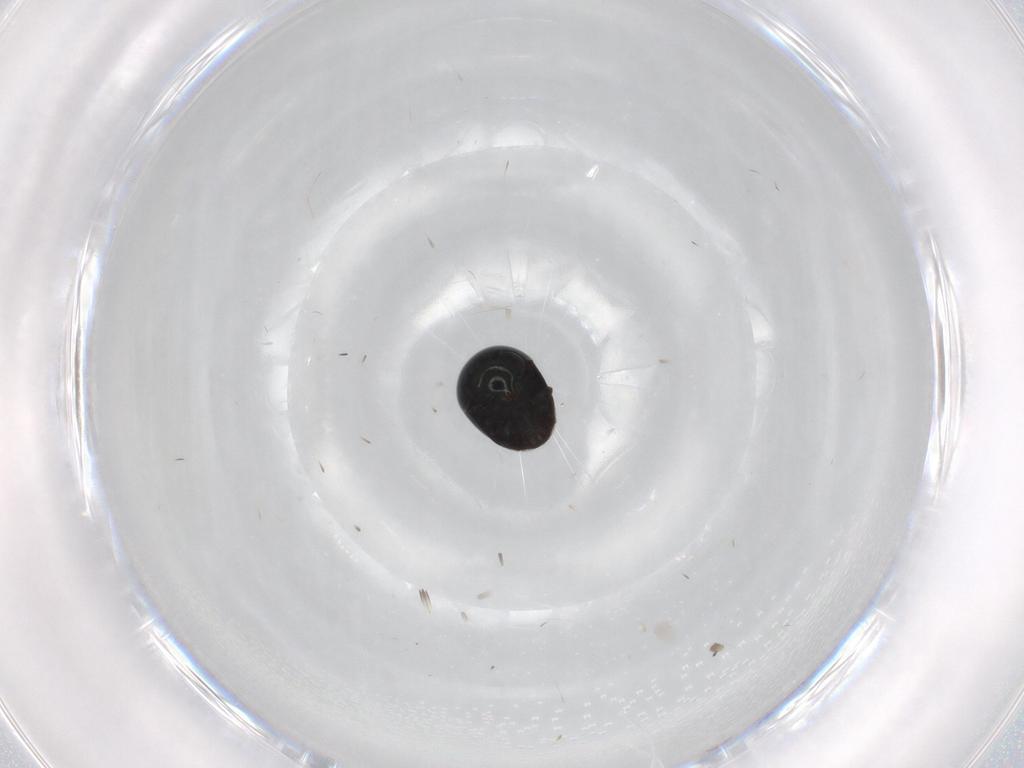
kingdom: Animalia
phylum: Arthropoda
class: Insecta
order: Coleoptera
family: Cybocephalidae
